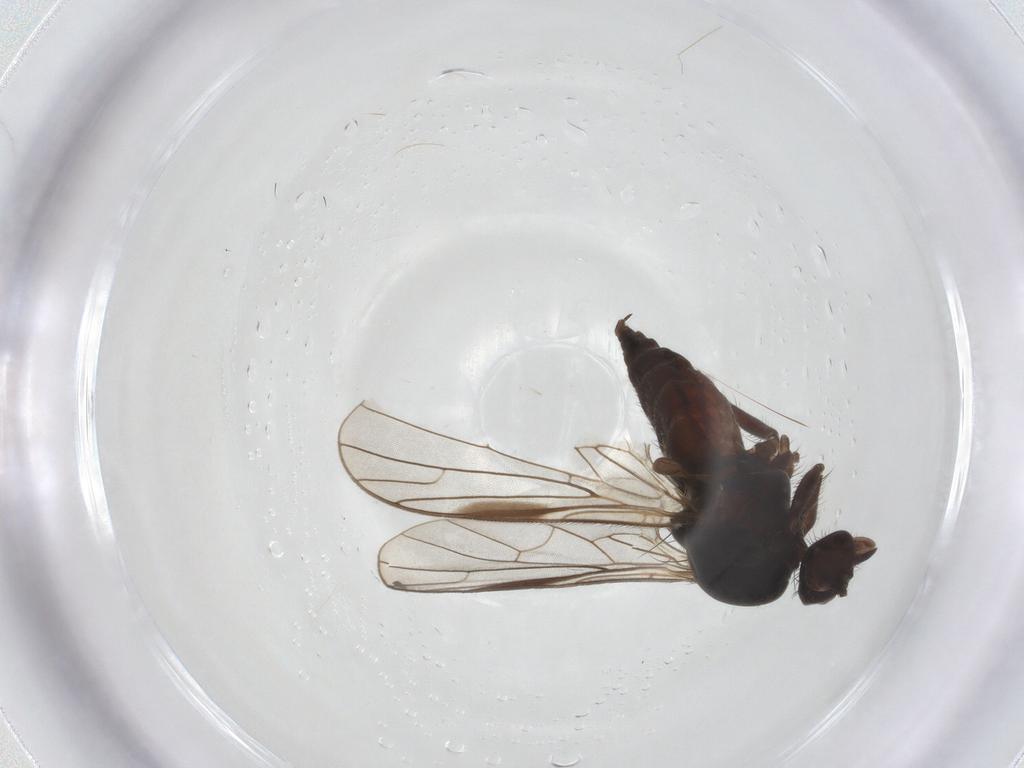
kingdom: Animalia
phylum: Arthropoda
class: Insecta
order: Diptera
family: Empididae
